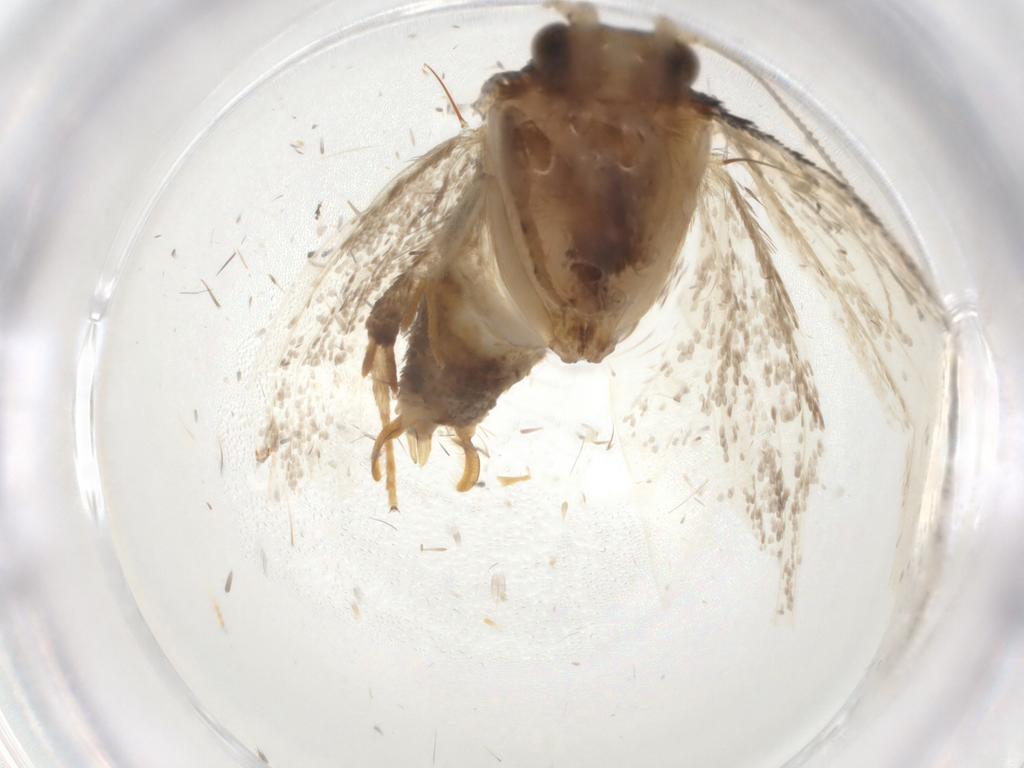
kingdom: Animalia
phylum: Arthropoda
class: Insecta
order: Lepidoptera
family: Tineidae
